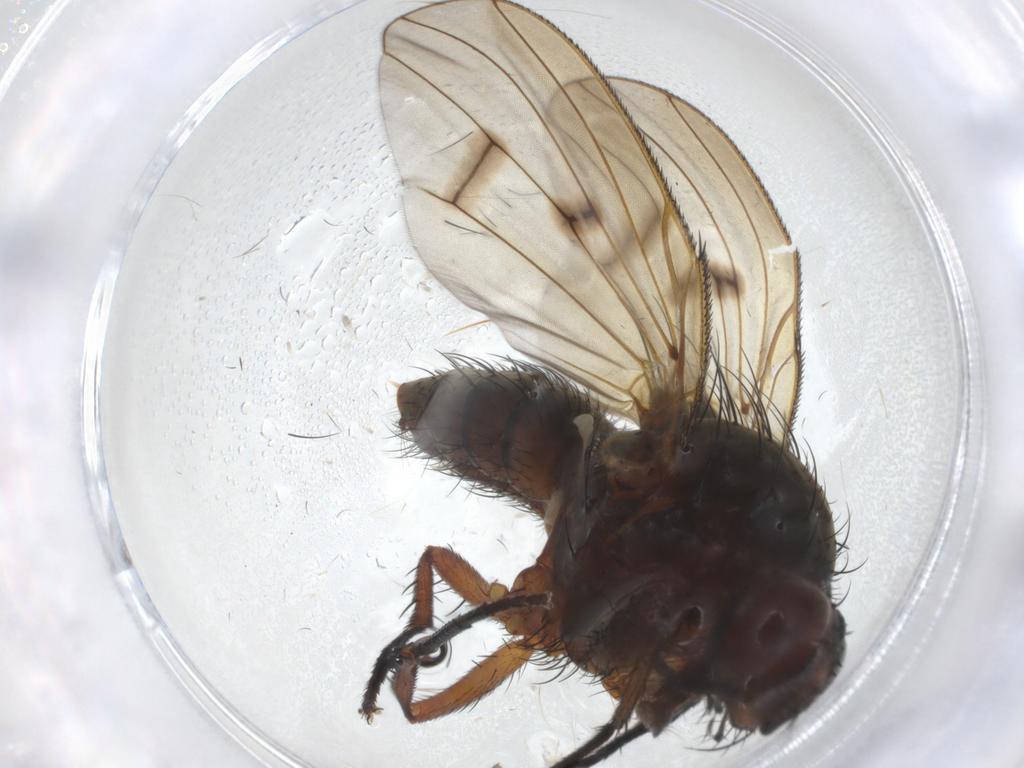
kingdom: Animalia
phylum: Arthropoda
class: Insecta
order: Diptera
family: Anthomyiidae
